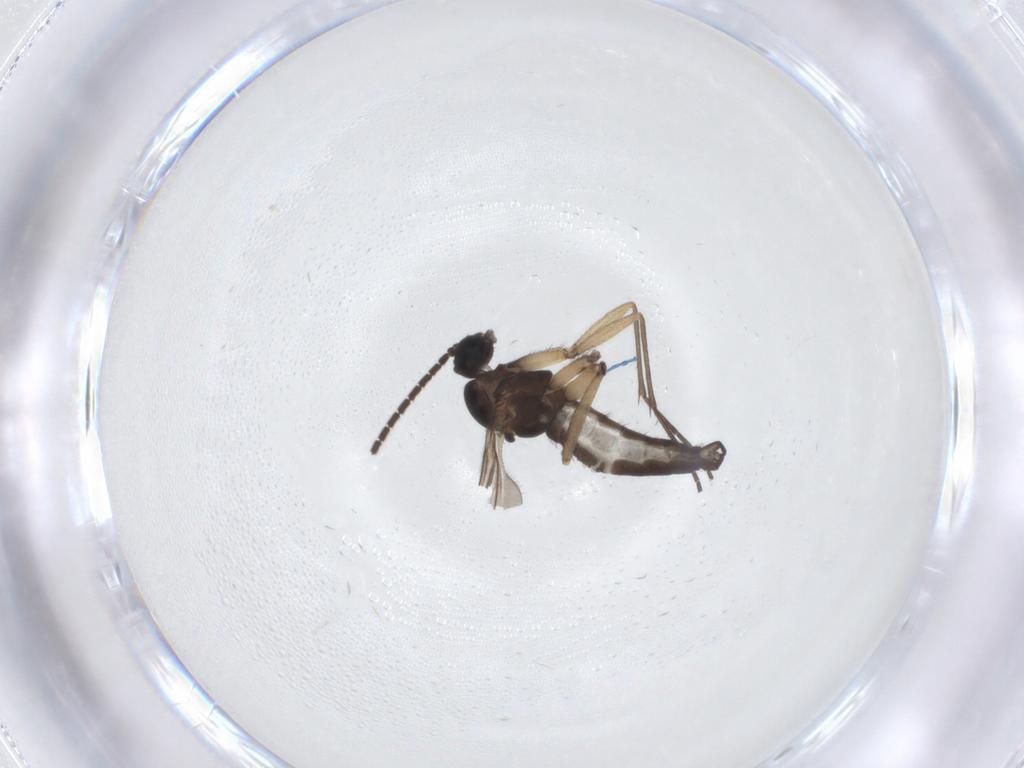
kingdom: Animalia
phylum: Arthropoda
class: Insecta
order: Diptera
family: Sciaridae
